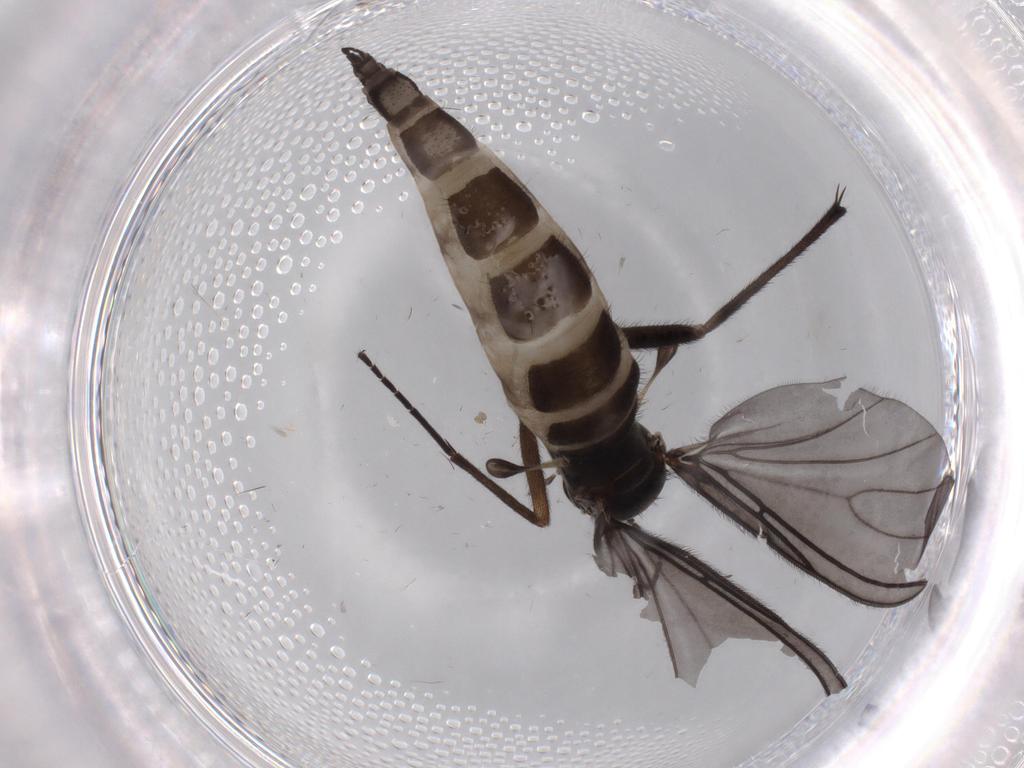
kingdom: Animalia
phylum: Arthropoda
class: Insecta
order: Diptera
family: Sciaridae
